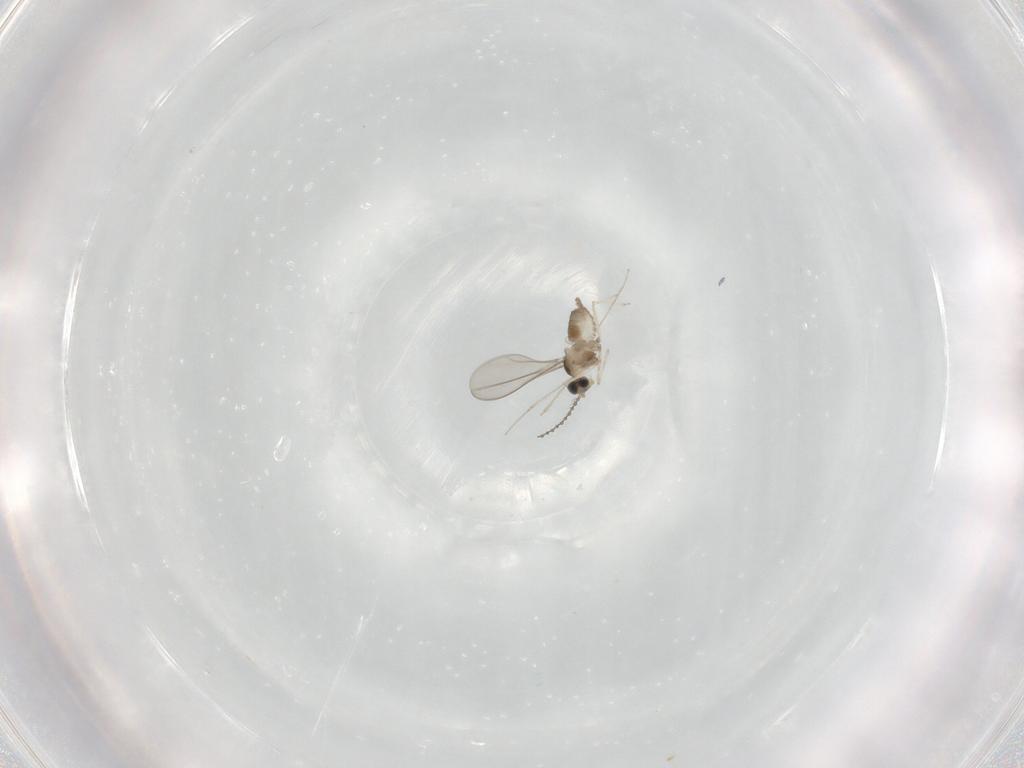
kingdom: Animalia
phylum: Arthropoda
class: Insecta
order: Diptera
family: Cecidomyiidae
